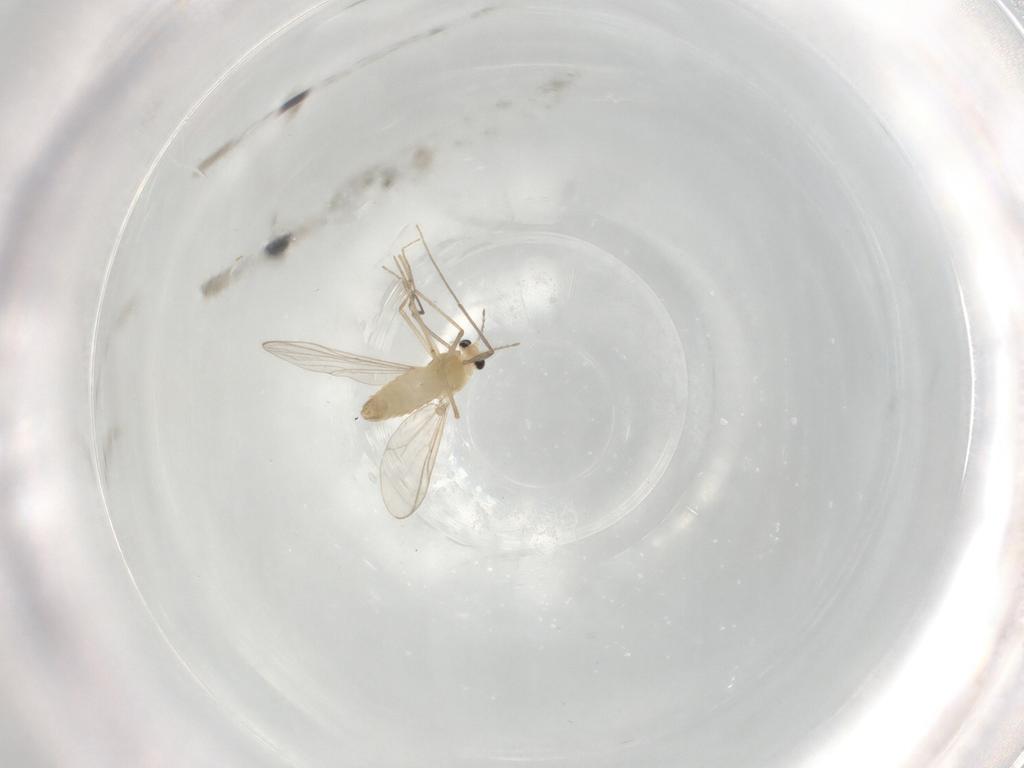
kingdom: Animalia
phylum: Arthropoda
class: Insecta
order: Diptera
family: Chironomidae
